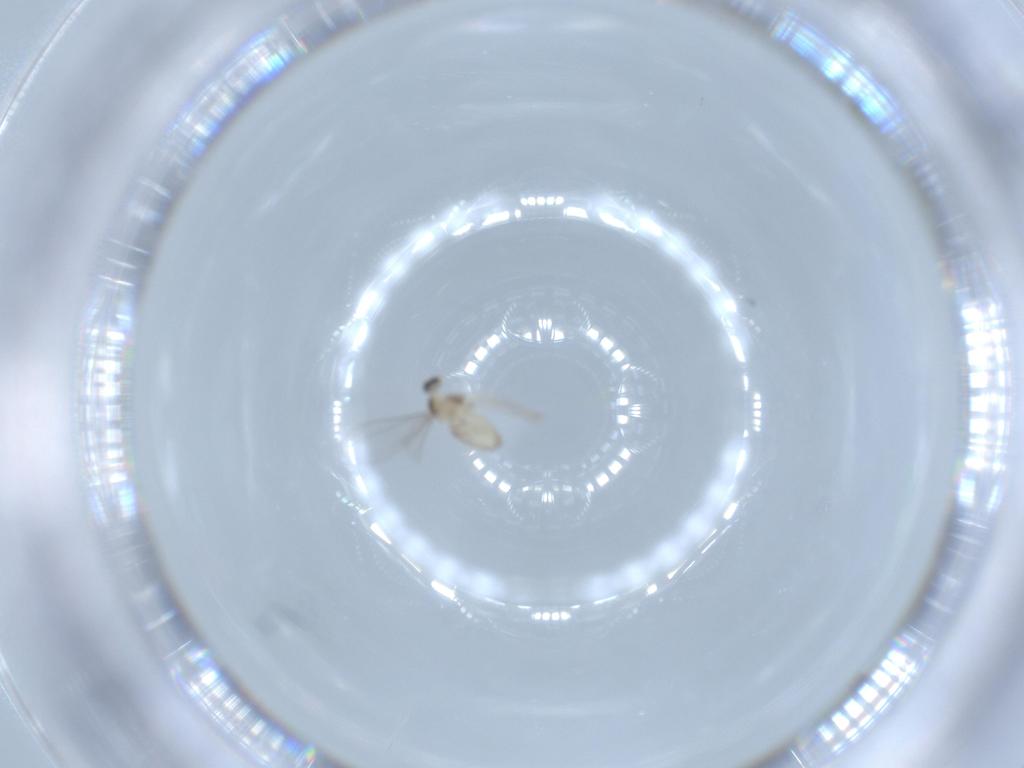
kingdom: Animalia
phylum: Arthropoda
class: Insecta
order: Diptera
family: Cecidomyiidae
